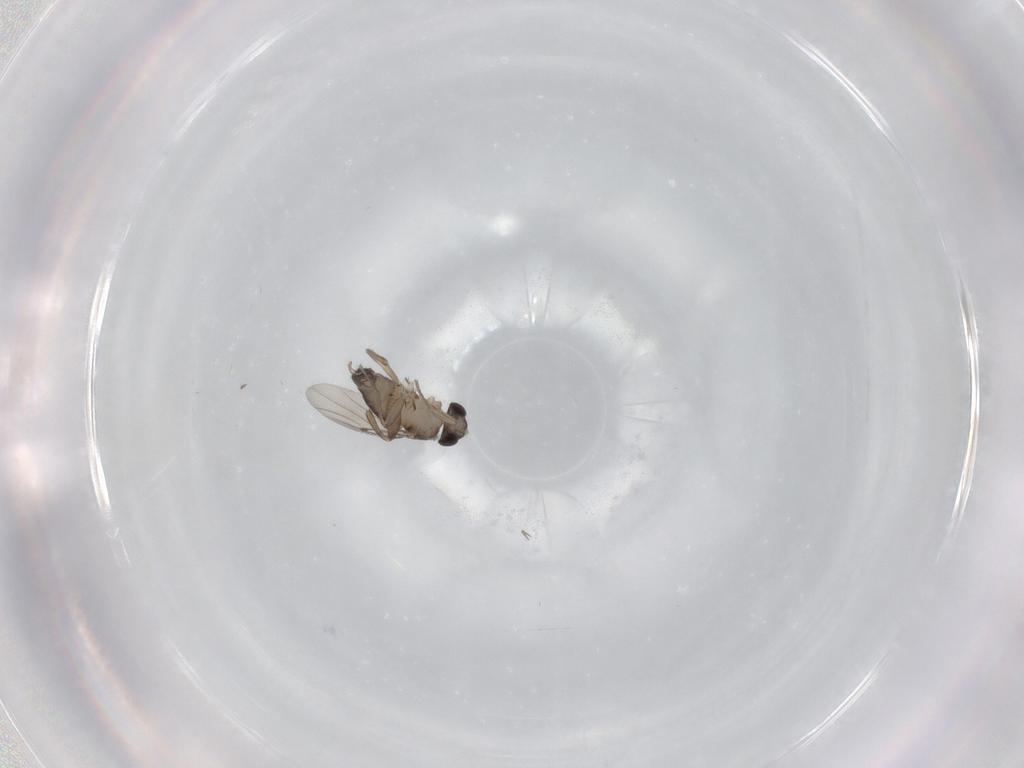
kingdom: Animalia
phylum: Arthropoda
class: Insecta
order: Diptera
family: Phoridae
